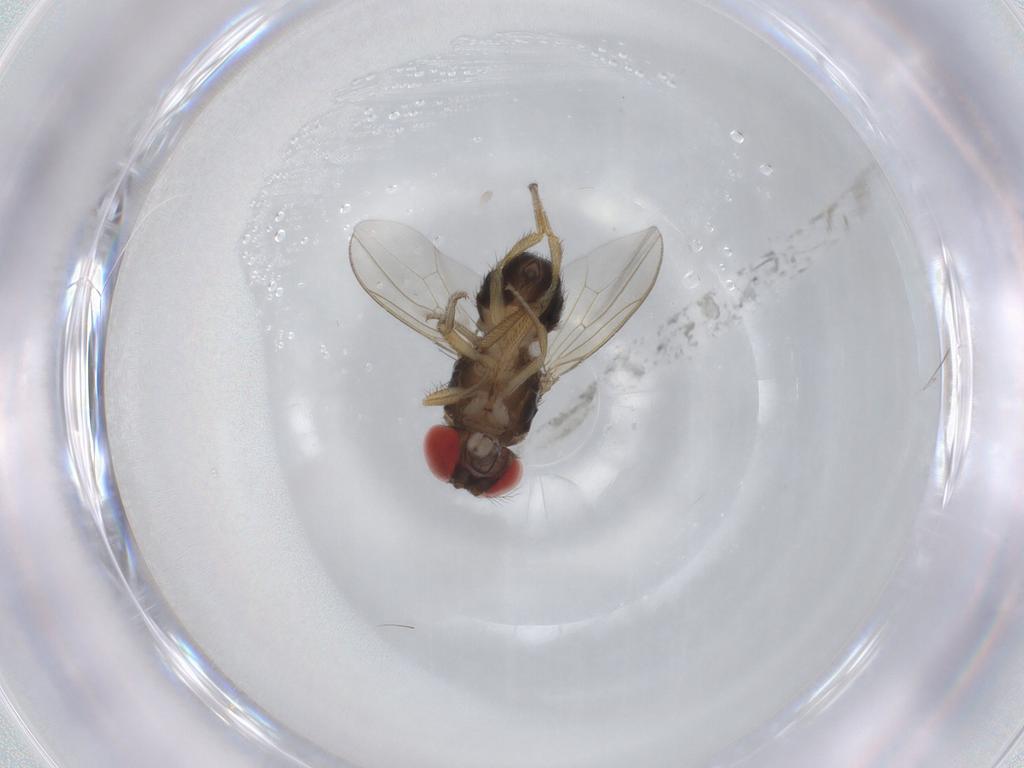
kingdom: Animalia
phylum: Arthropoda
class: Insecta
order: Diptera
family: Drosophilidae
